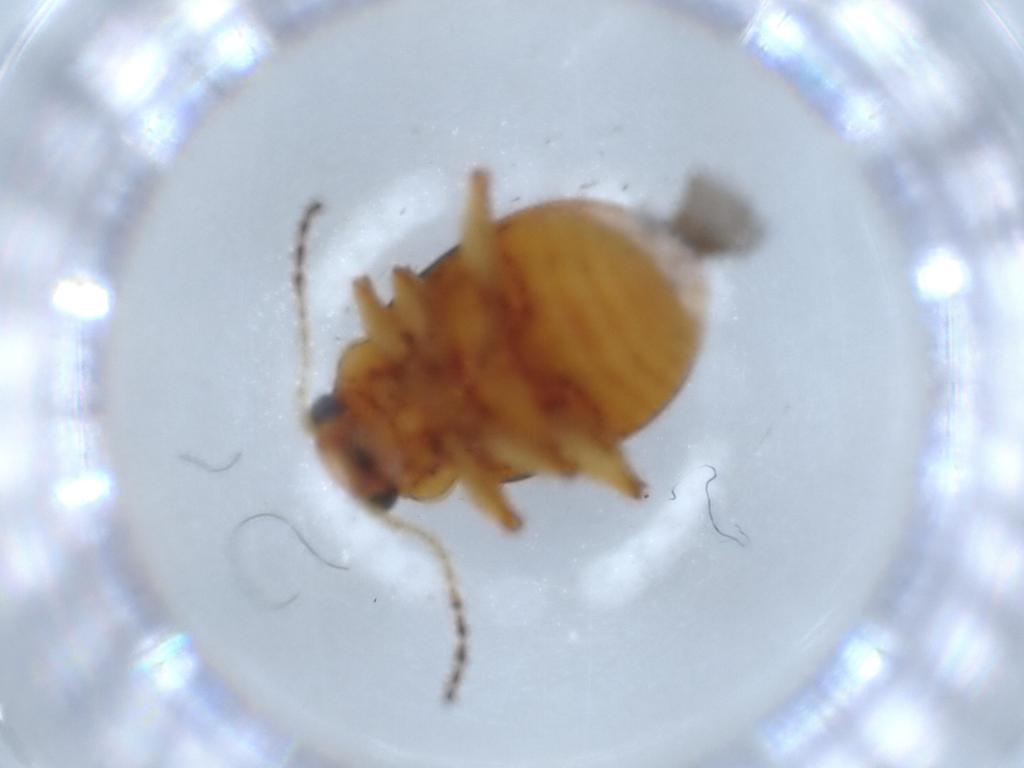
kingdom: Animalia
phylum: Arthropoda
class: Insecta
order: Coleoptera
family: Chrysomelidae
